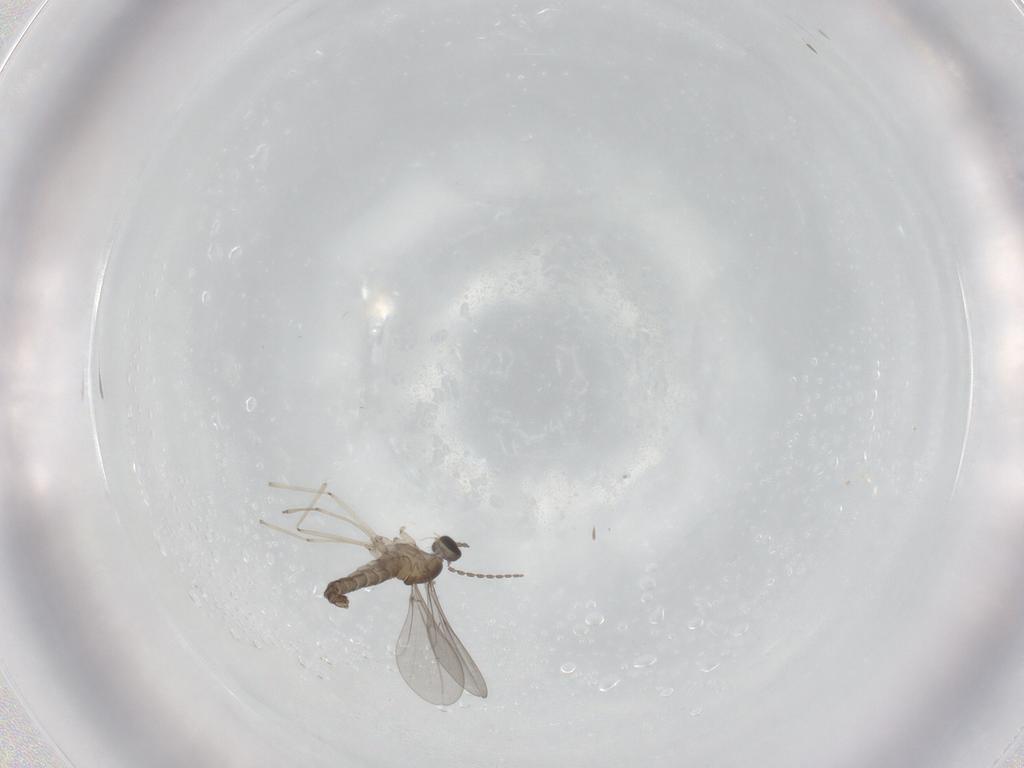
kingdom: Animalia
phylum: Arthropoda
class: Insecta
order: Diptera
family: Cecidomyiidae
